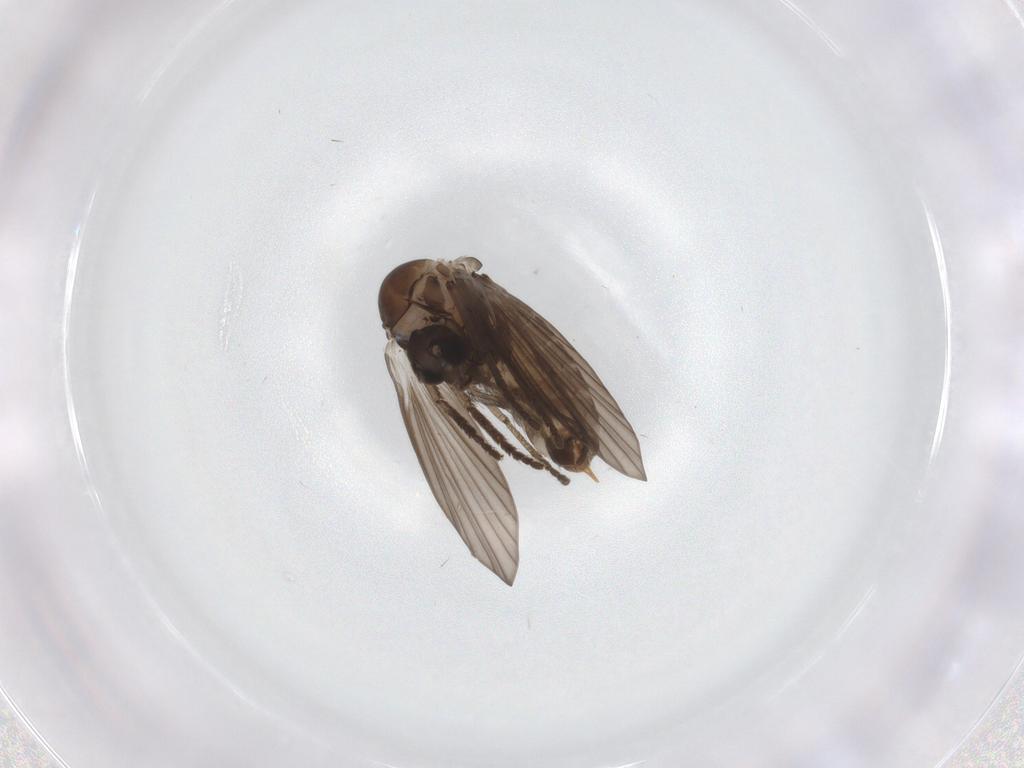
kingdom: Animalia
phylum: Arthropoda
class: Insecta
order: Diptera
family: Psychodidae
